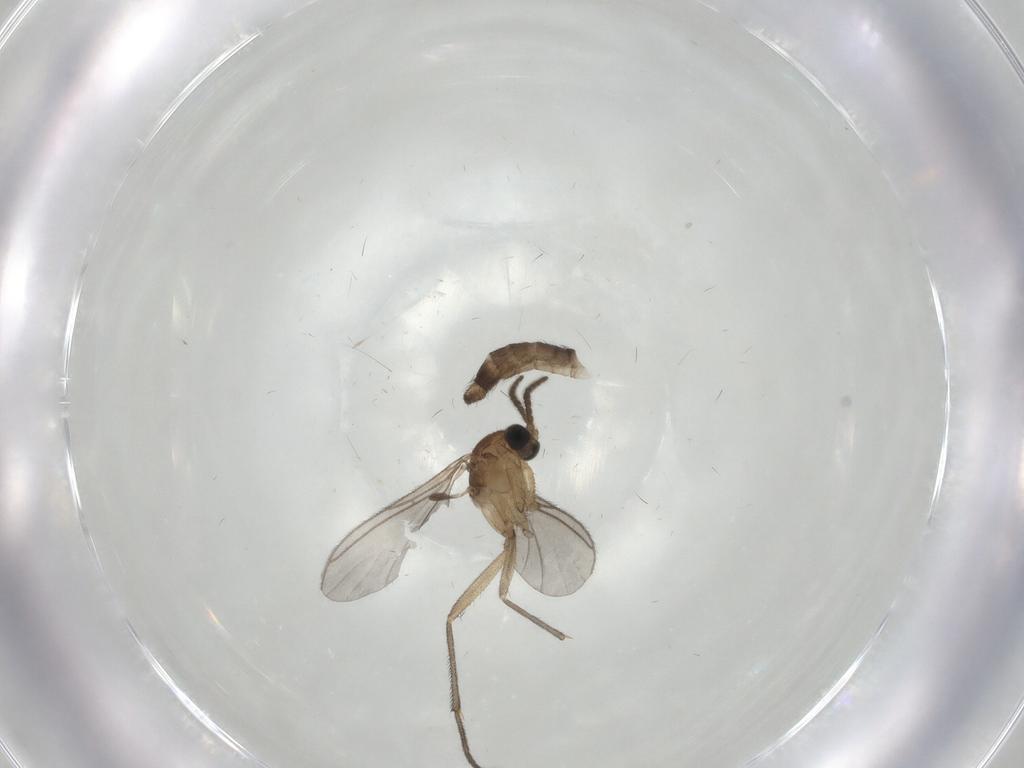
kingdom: Animalia
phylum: Arthropoda
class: Insecta
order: Diptera
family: Sciaridae
